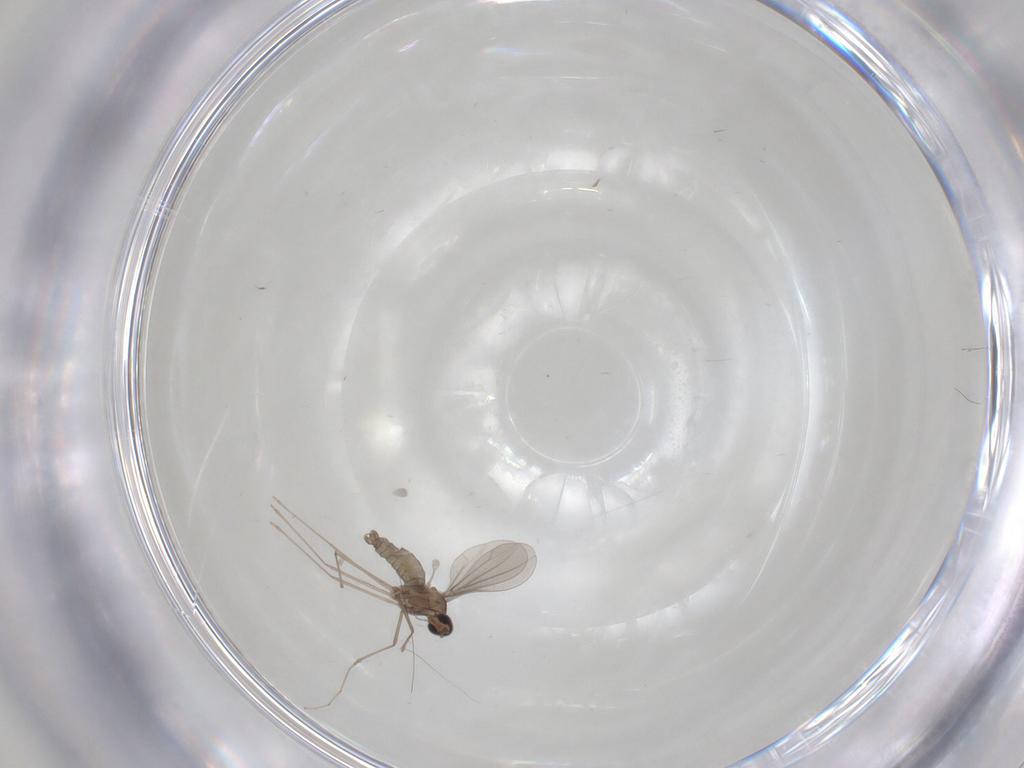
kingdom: Animalia
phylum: Arthropoda
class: Insecta
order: Diptera
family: Cecidomyiidae
